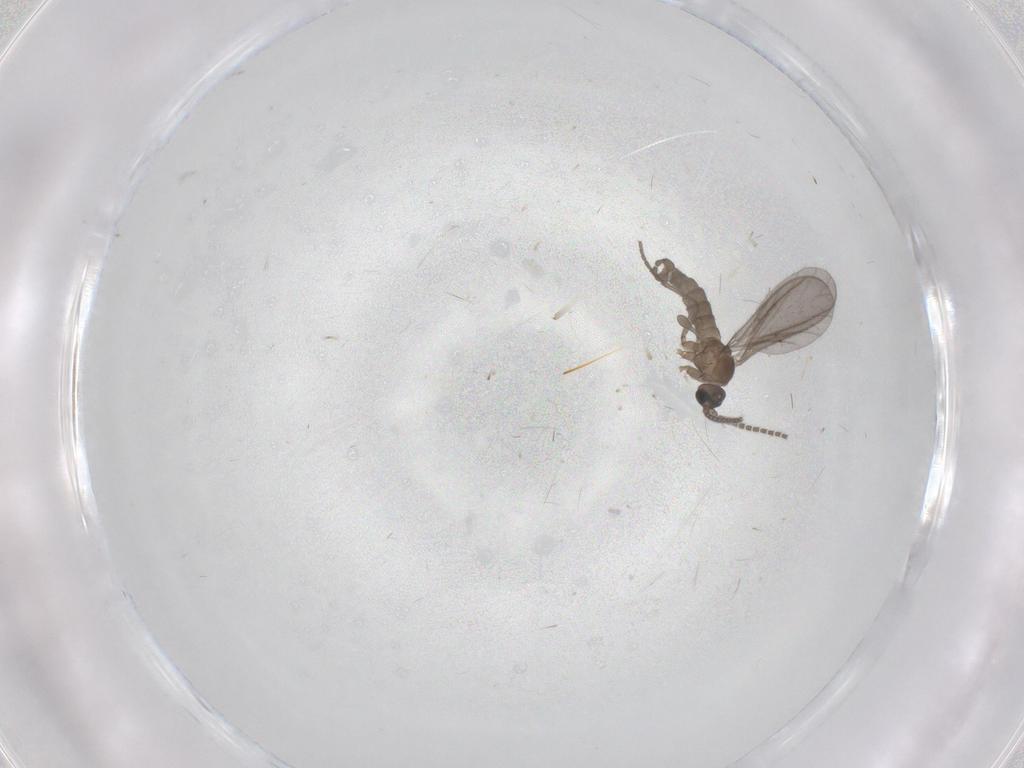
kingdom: Animalia
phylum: Arthropoda
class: Insecta
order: Diptera
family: Sciaridae
